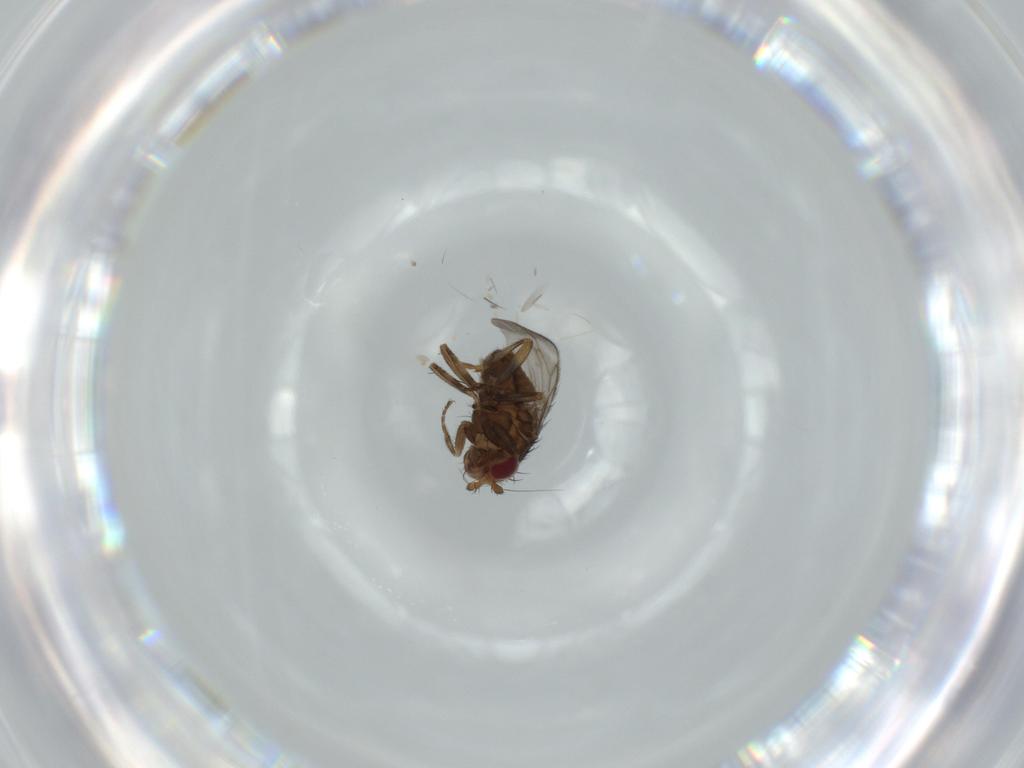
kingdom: Animalia
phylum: Arthropoda
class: Insecta
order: Diptera
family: Sphaeroceridae
